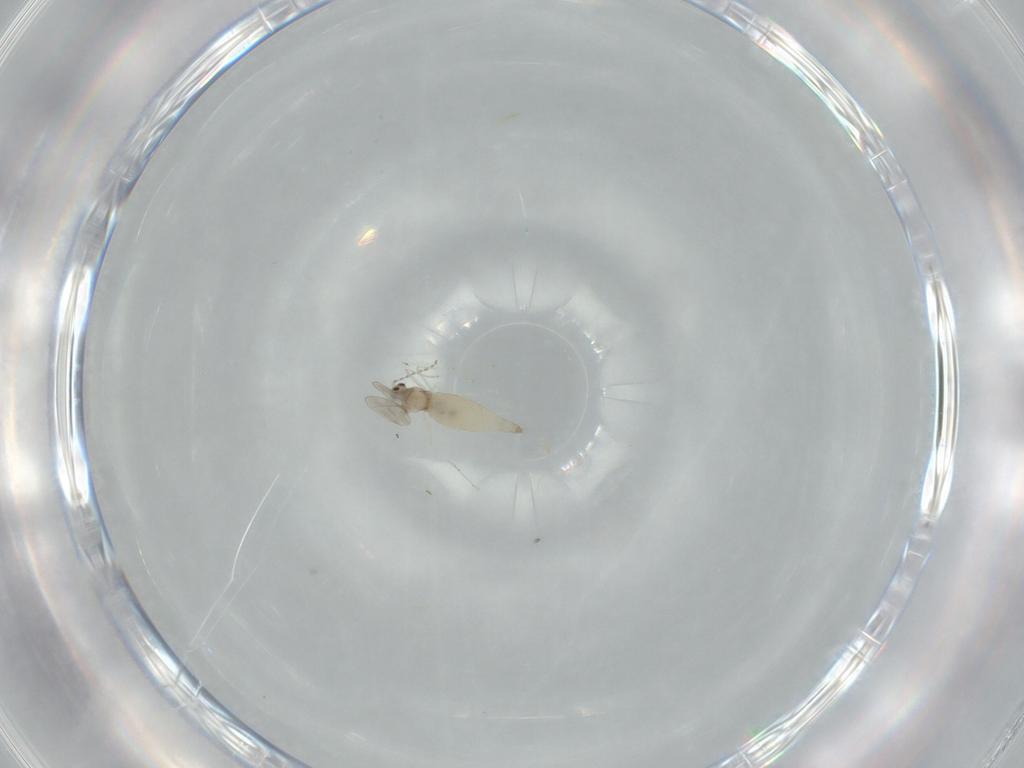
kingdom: Animalia
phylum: Arthropoda
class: Insecta
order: Diptera
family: Cecidomyiidae
